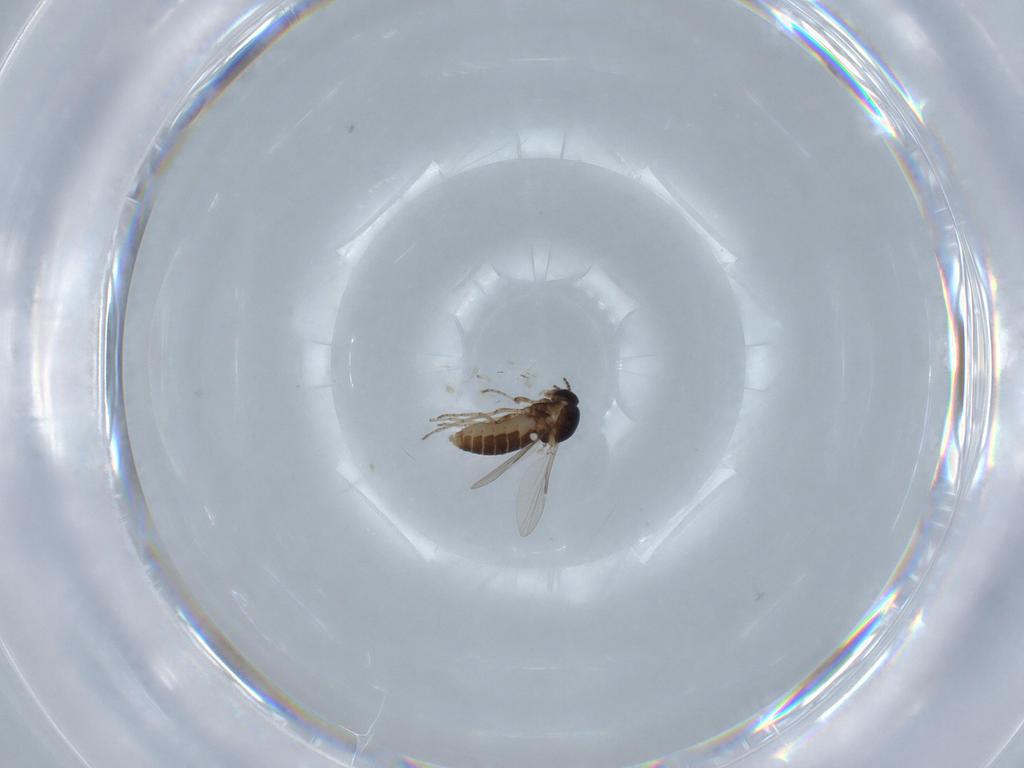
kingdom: Animalia
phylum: Arthropoda
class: Insecta
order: Diptera
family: Ceratopogonidae
